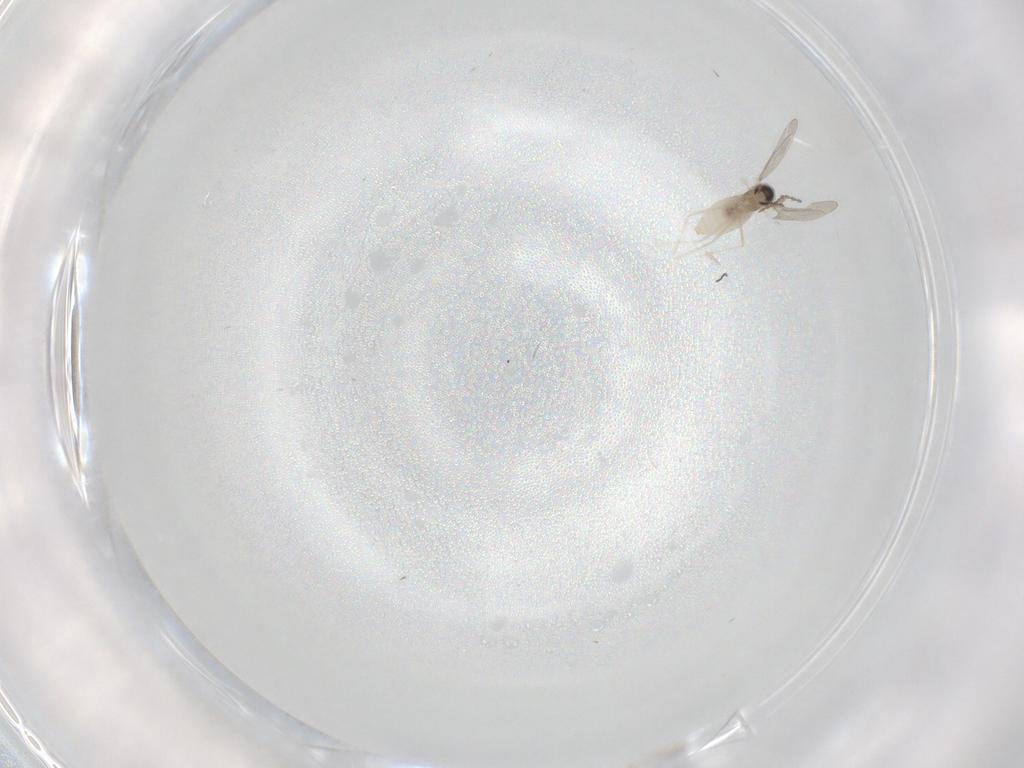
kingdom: Animalia
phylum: Arthropoda
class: Insecta
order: Diptera
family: Cecidomyiidae
